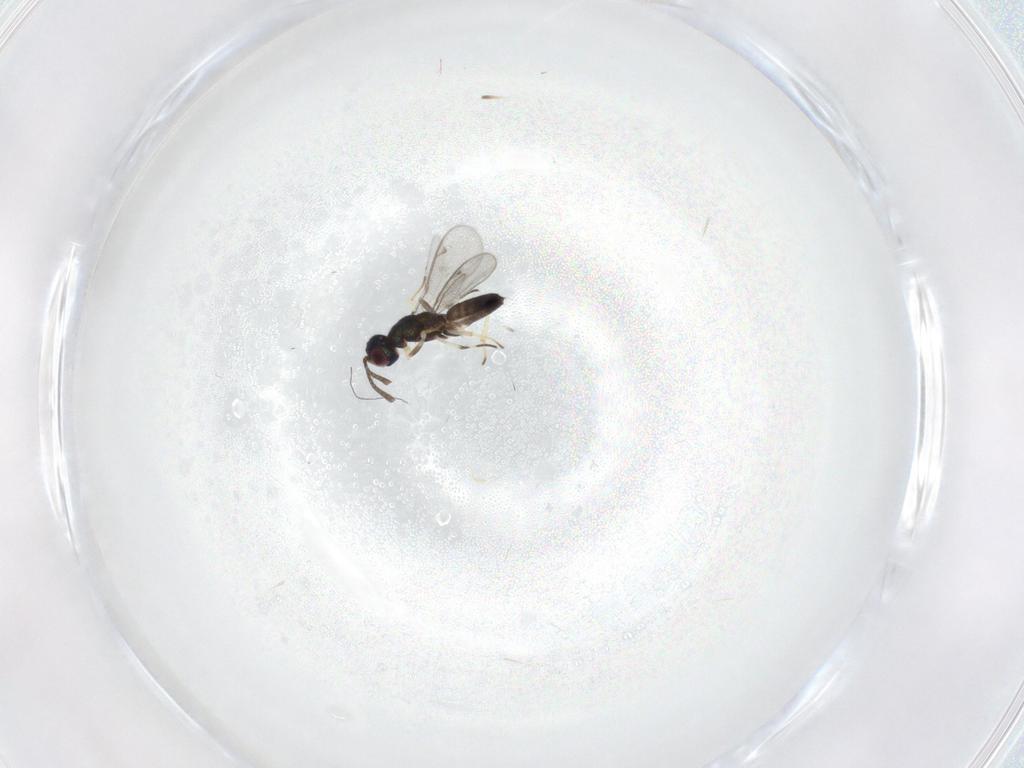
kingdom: Animalia
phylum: Arthropoda
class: Insecta
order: Hymenoptera
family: Eupelmidae
